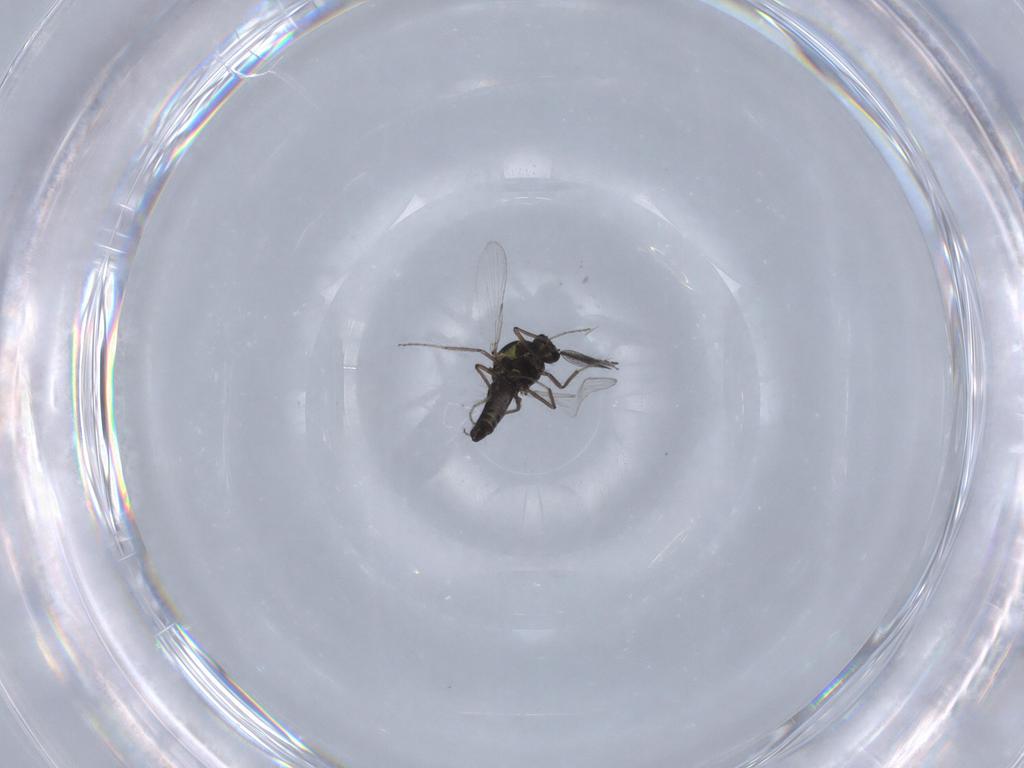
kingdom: Animalia
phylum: Arthropoda
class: Insecta
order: Diptera
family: Ceratopogonidae
